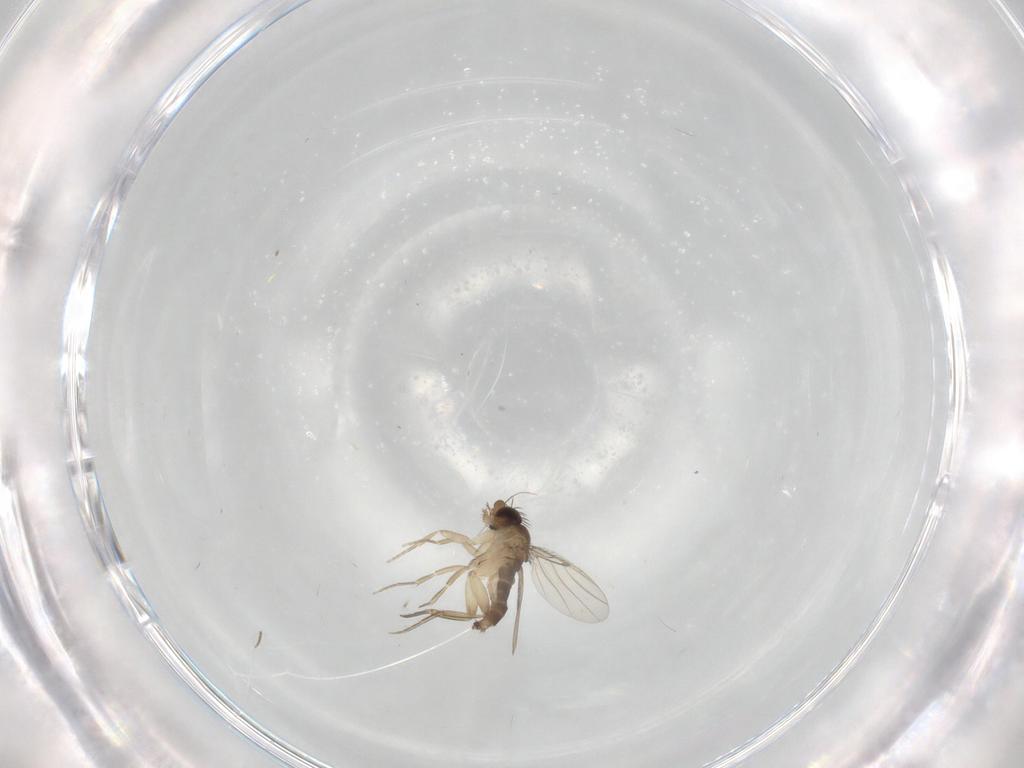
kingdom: Animalia
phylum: Arthropoda
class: Insecta
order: Diptera
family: Phoridae
